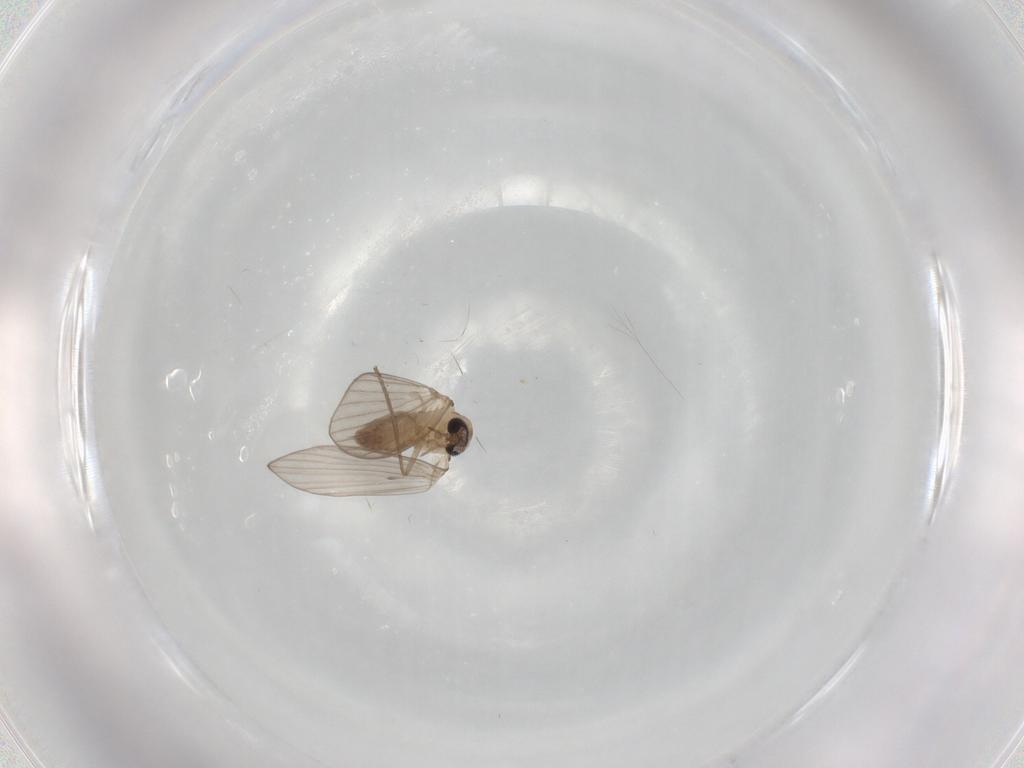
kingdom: Animalia
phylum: Arthropoda
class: Insecta
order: Diptera
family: Psychodidae
